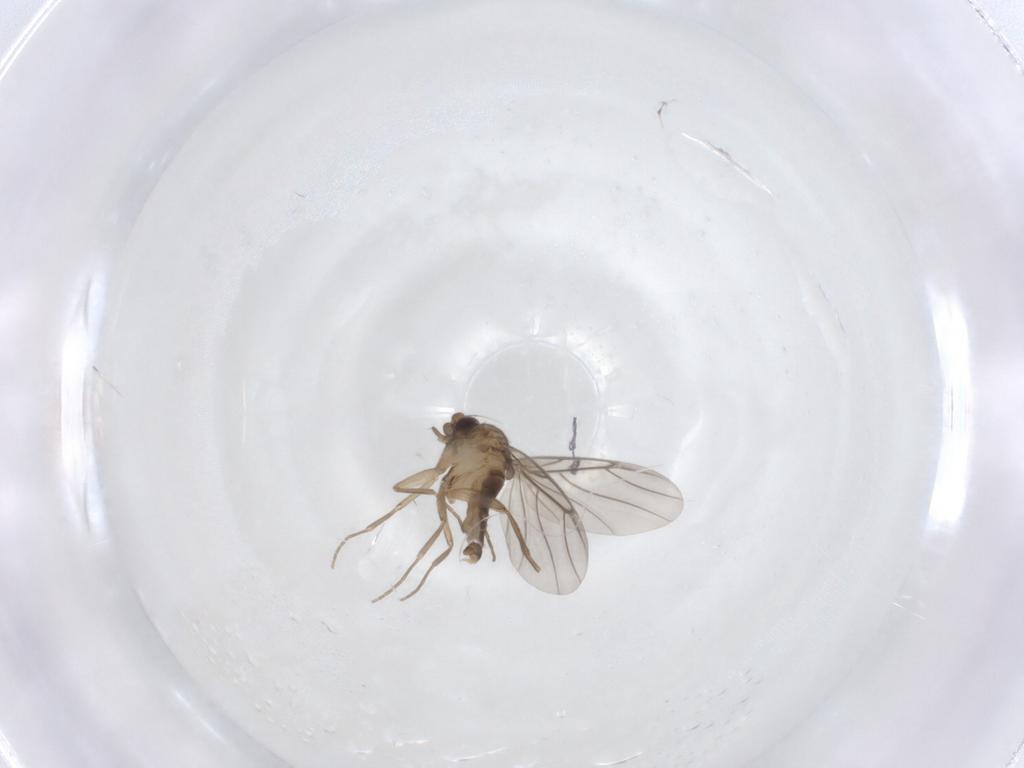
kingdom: Animalia
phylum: Arthropoda
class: Insecta
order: Diptera
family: Phoridae
